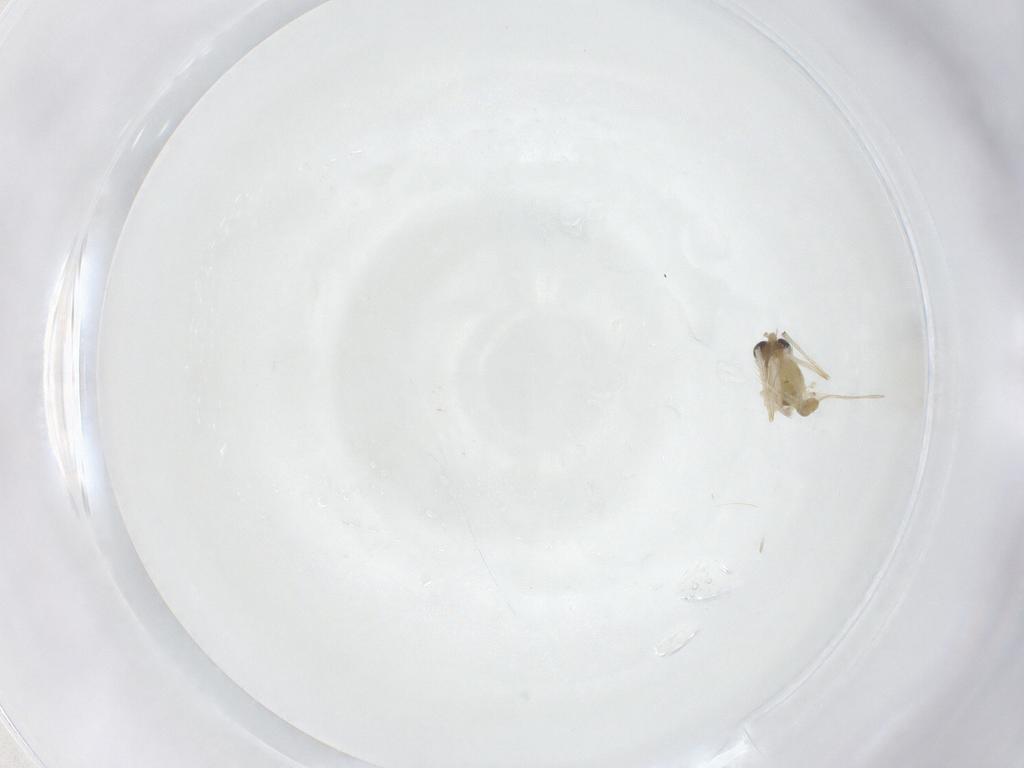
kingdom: Animalia
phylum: Arthropoda
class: Insecta
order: Diptera
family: Chironomidae
